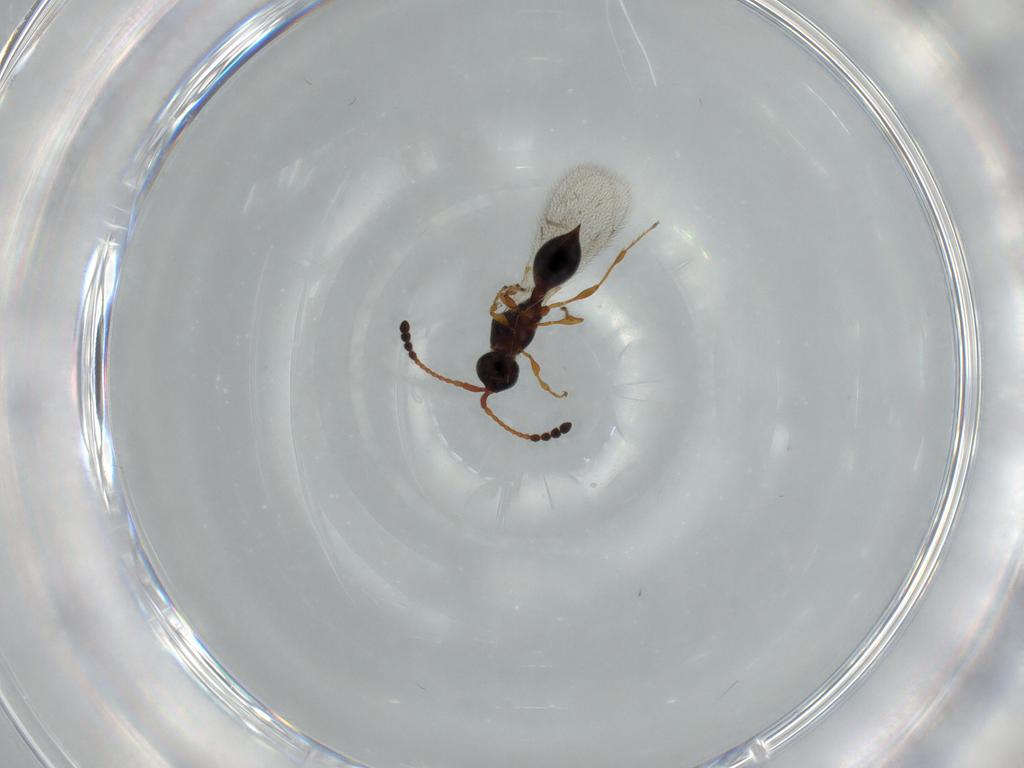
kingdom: Animalia
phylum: Arthropoda
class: Insecta
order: Hymenoptera
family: Diapriidae
